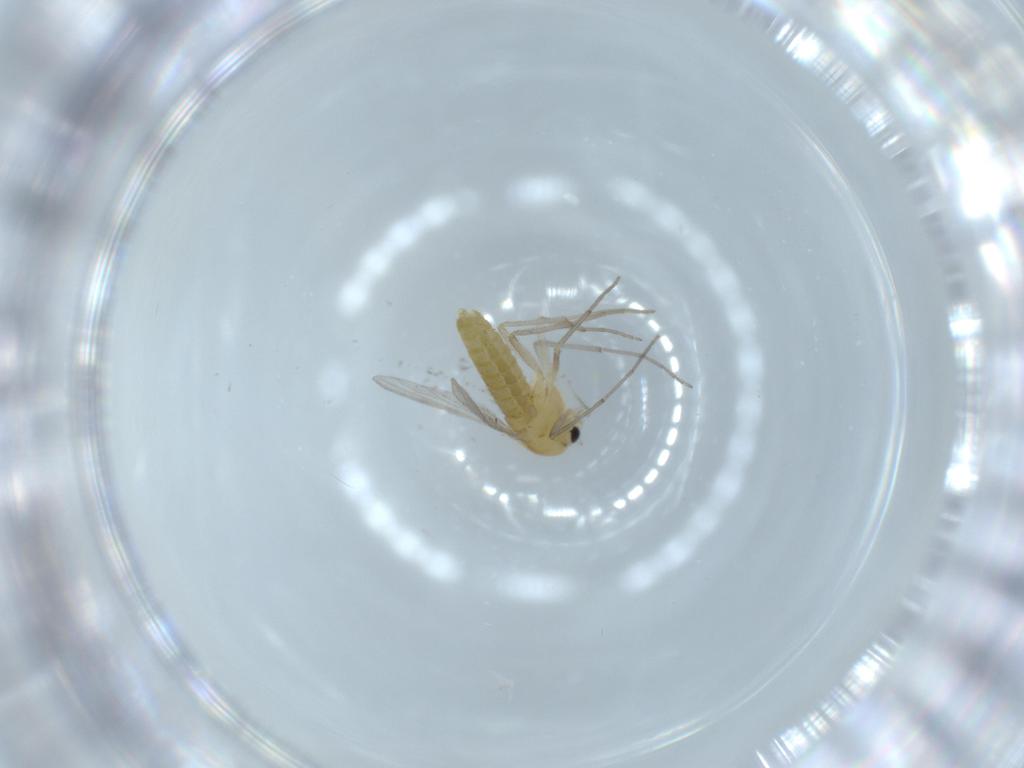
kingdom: Animalia
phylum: Arthropoda
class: Insecta
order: Diptera
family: Chironomidae
